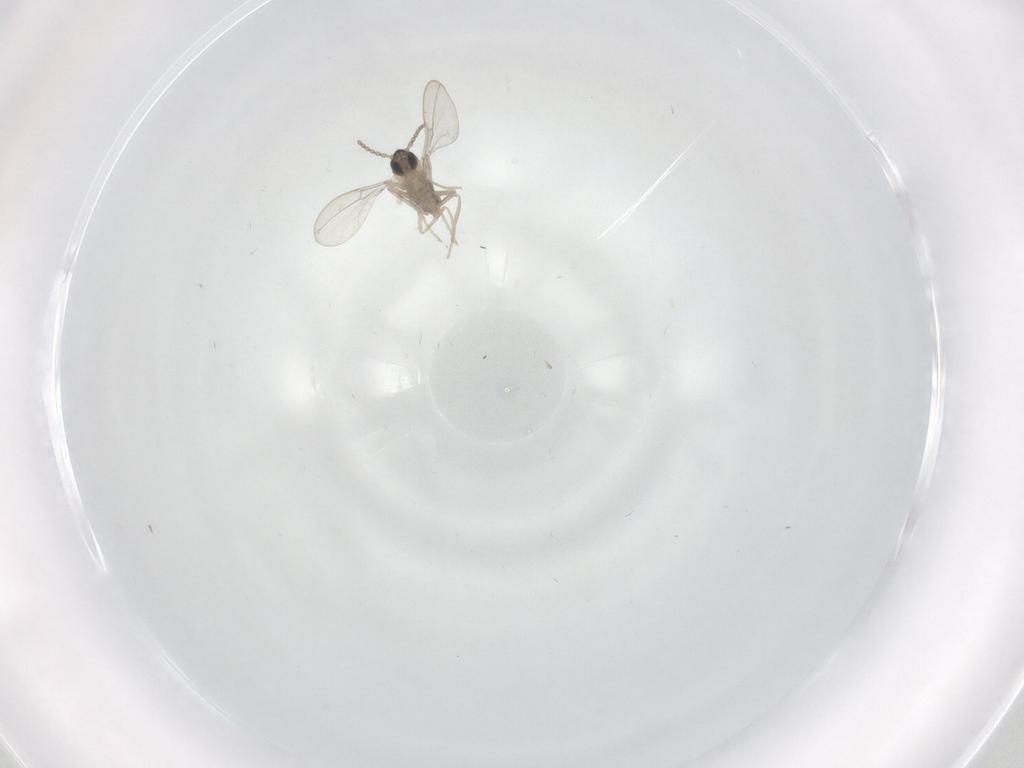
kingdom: Animalia
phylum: Arthropoda
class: Insecta
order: Diptera
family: Cecidomyiidae
